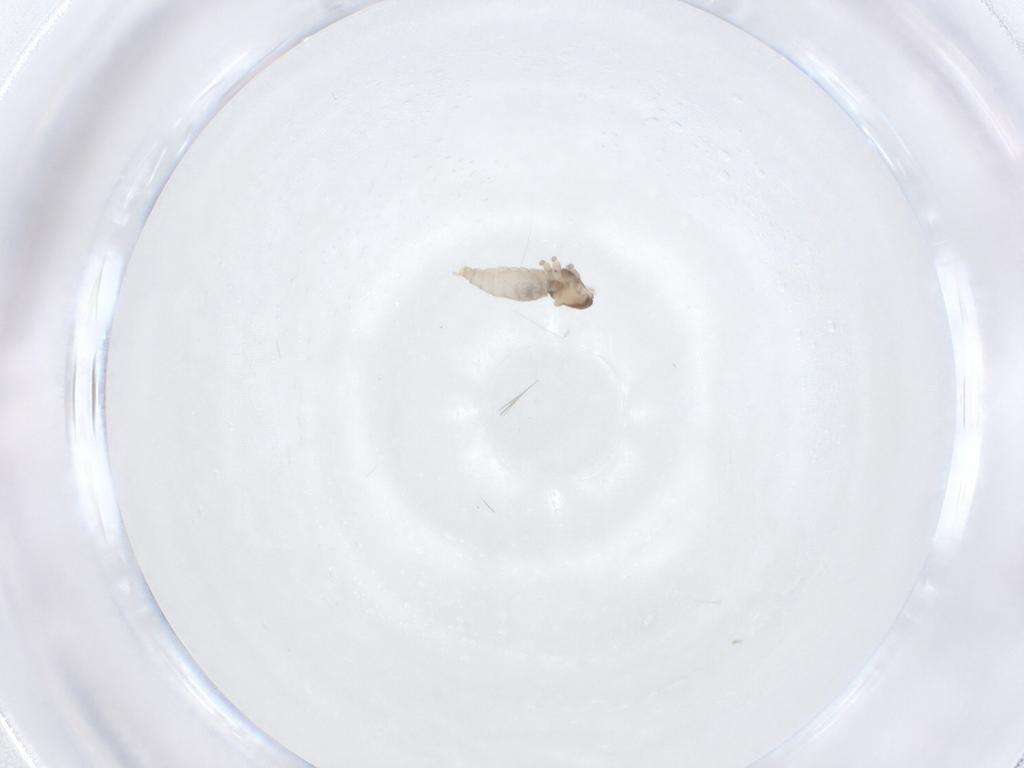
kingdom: Animalia
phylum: Arthropoda
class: Insecta
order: Diptera
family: Cecidomyiidae
